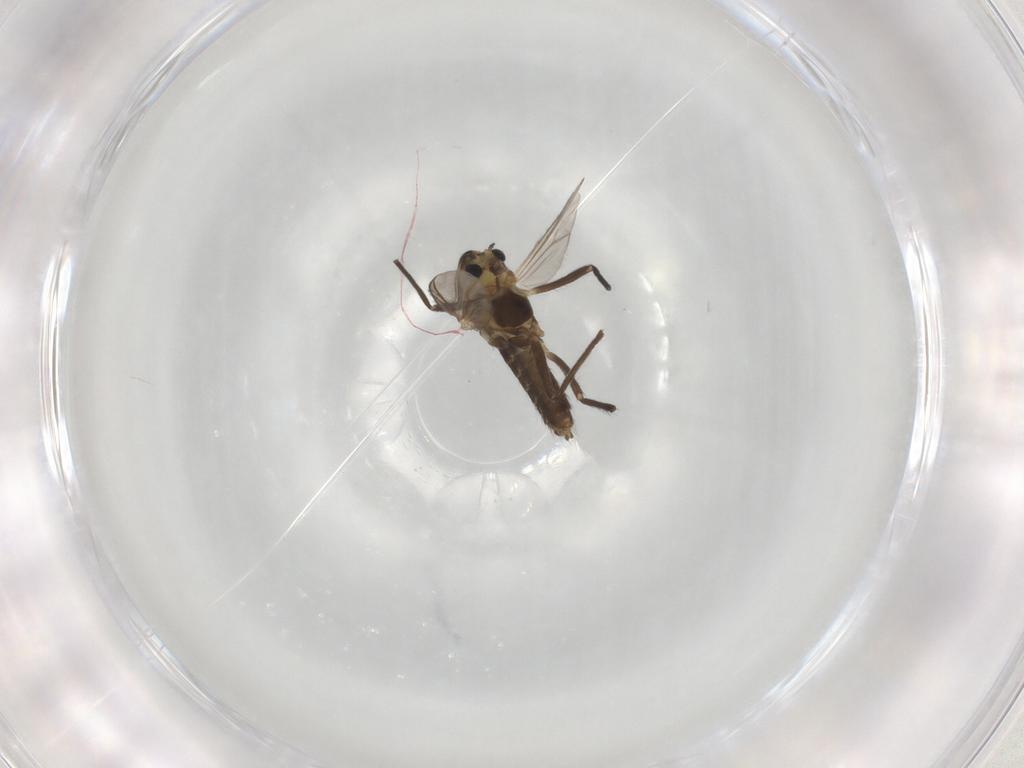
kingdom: Animalia
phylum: Arthropoda
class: Insecta
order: Diptera
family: Chironomidae
